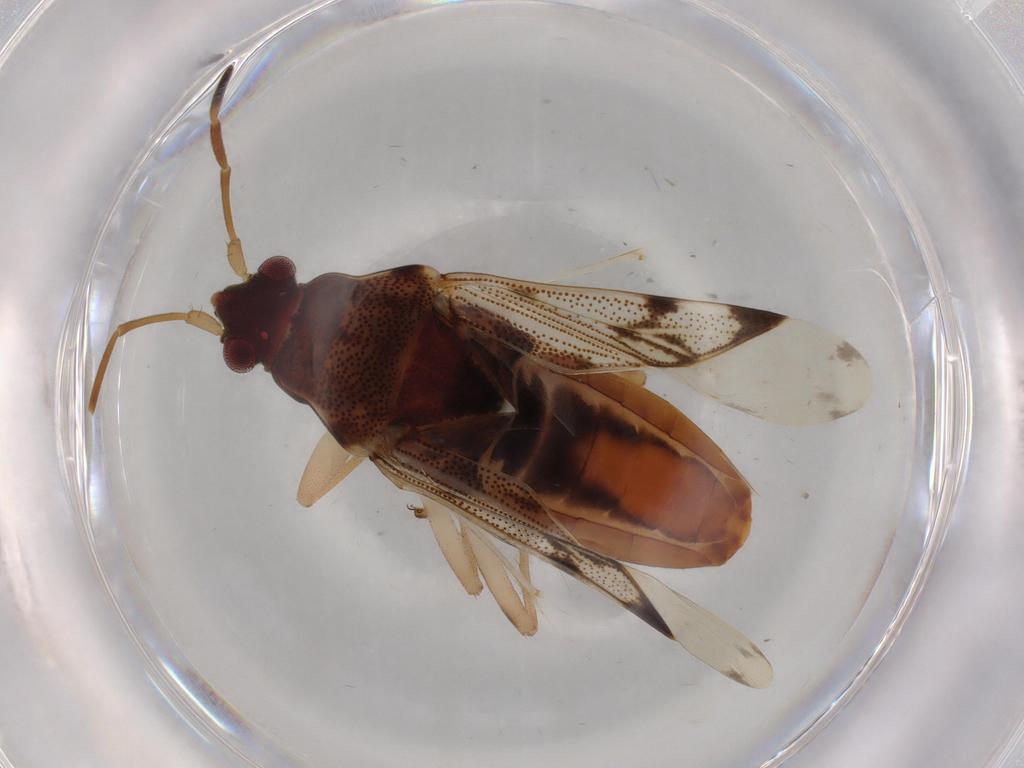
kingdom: Animalia
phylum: Arthropoda
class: Insecta
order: Hemiptera
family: Rhyparochromidae
